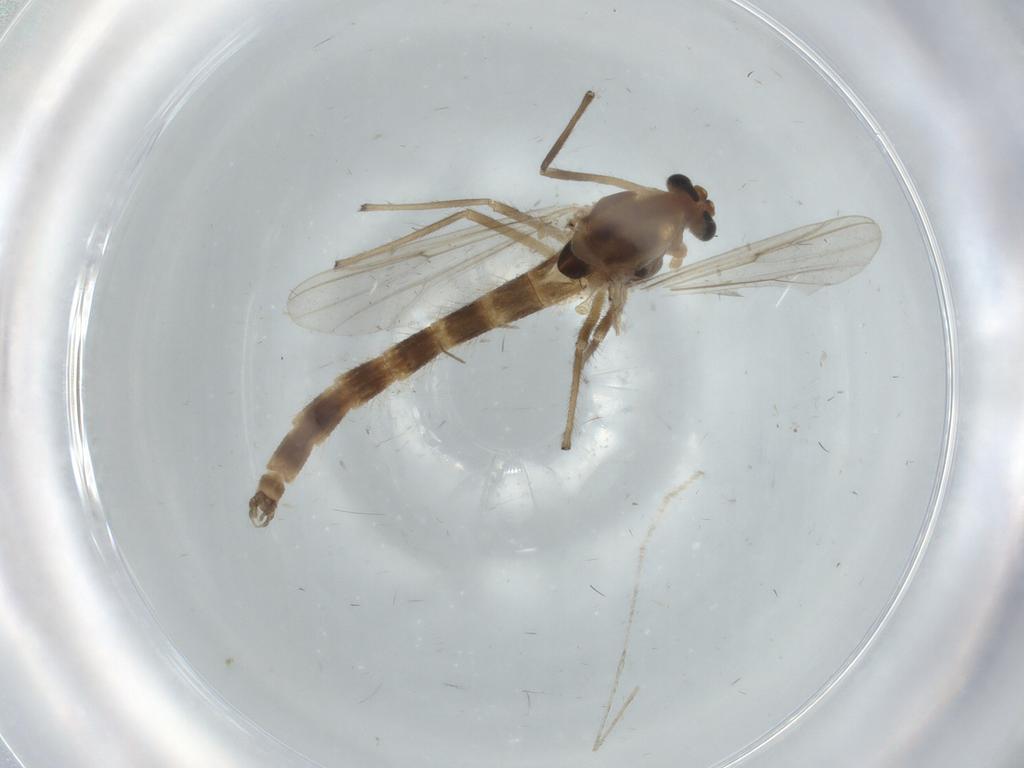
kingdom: Animalia
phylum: Arthropoda
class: Insecta
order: Diptera
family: Chironomidae
